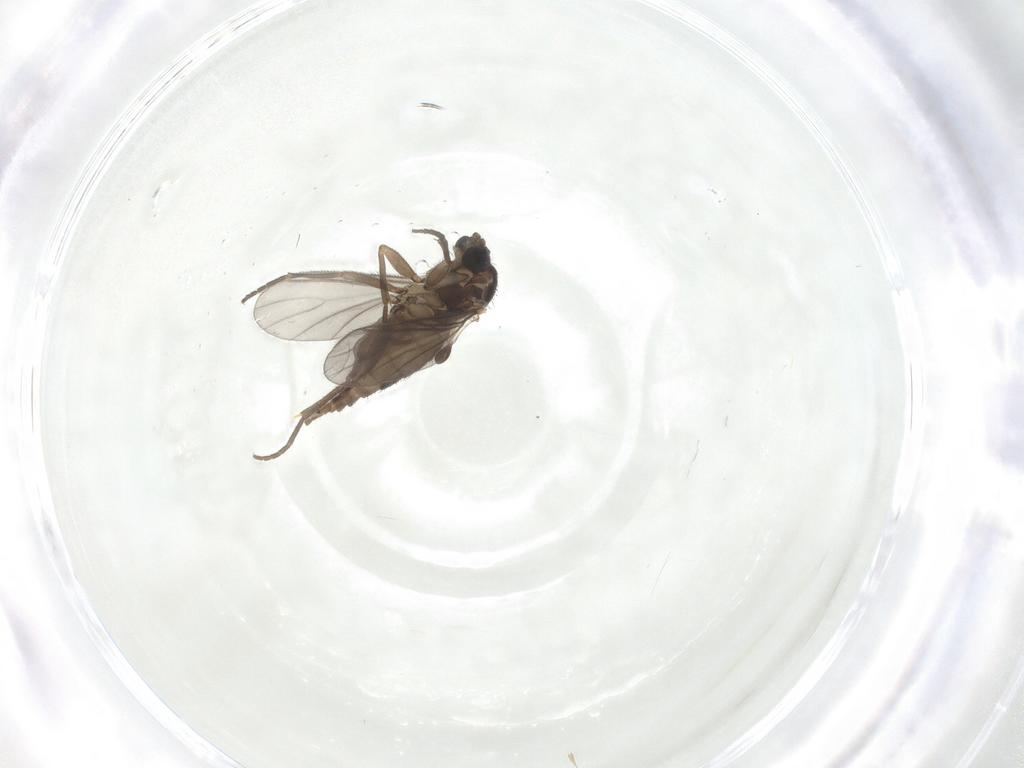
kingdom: Animalia
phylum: Arthropoda
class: Insecta
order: Diptera
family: Sciaridae
